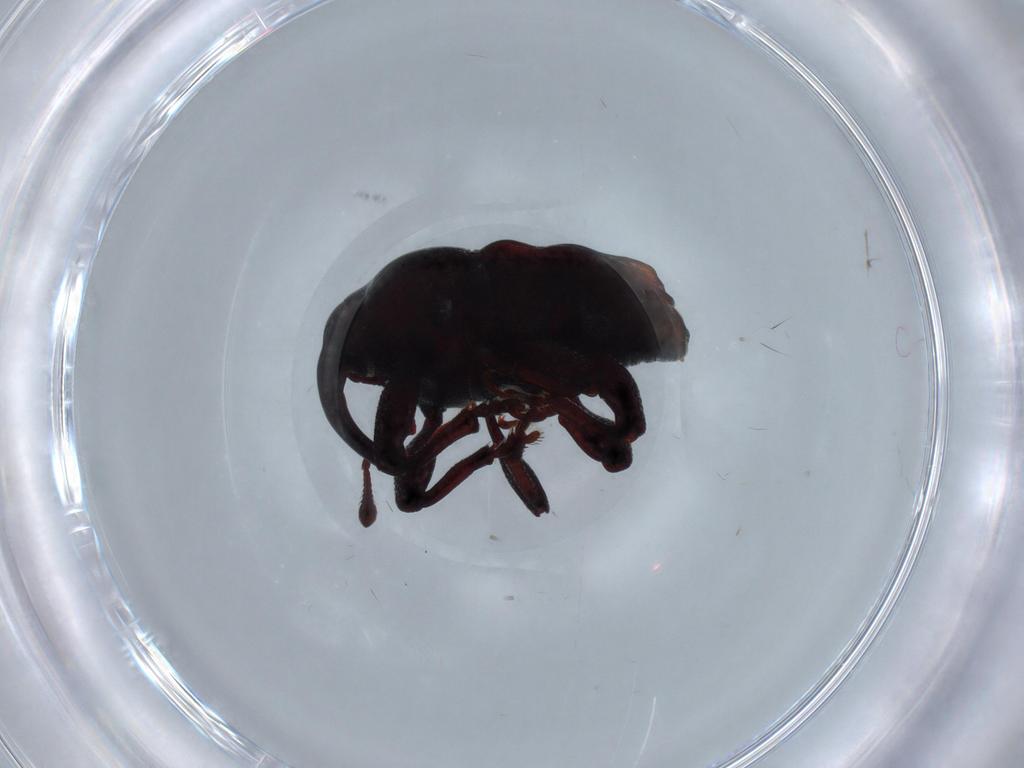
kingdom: Animalia
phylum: Arthropoda
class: Insecta
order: Coleoptera
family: Curculionidae
